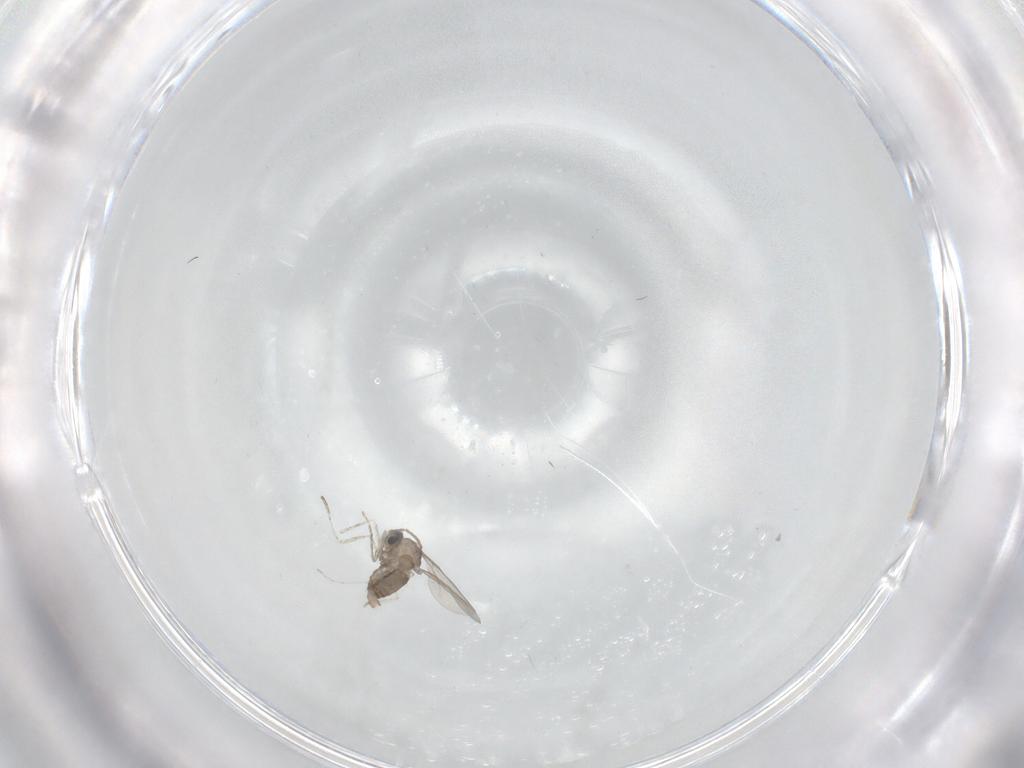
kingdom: Animalia
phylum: Arthropoda
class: Insecta
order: Diptera
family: Cecidomyiidae
